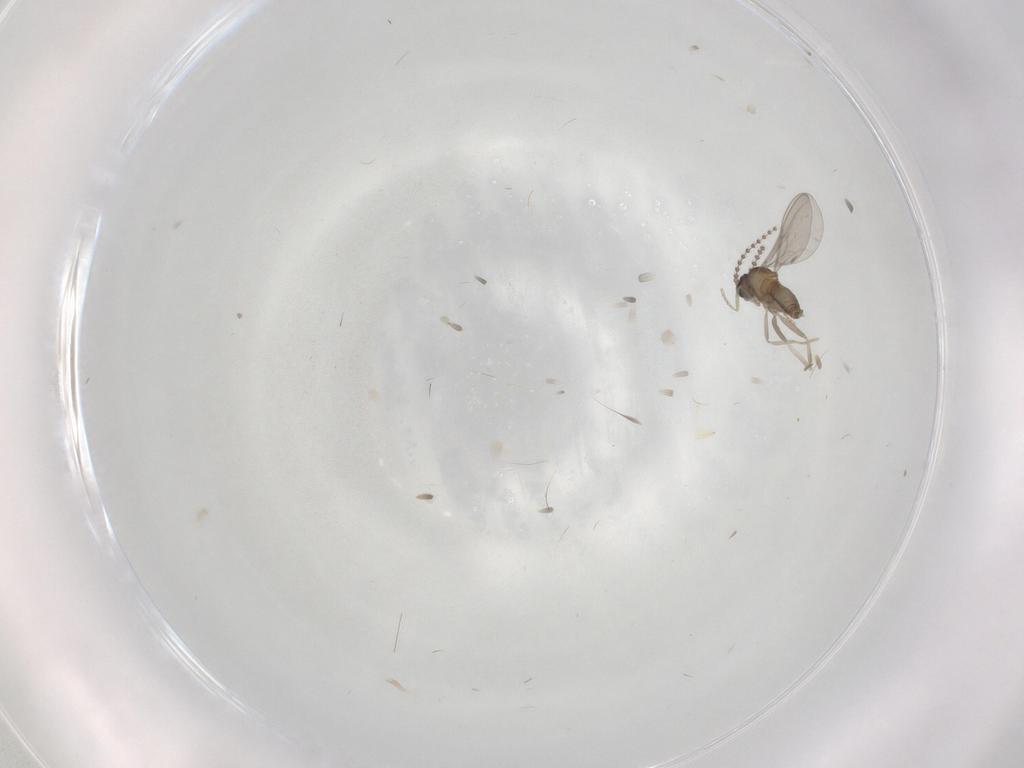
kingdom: Animalia
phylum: Arthropoda
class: Insecta
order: Diptera
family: Cecidomyiidae
